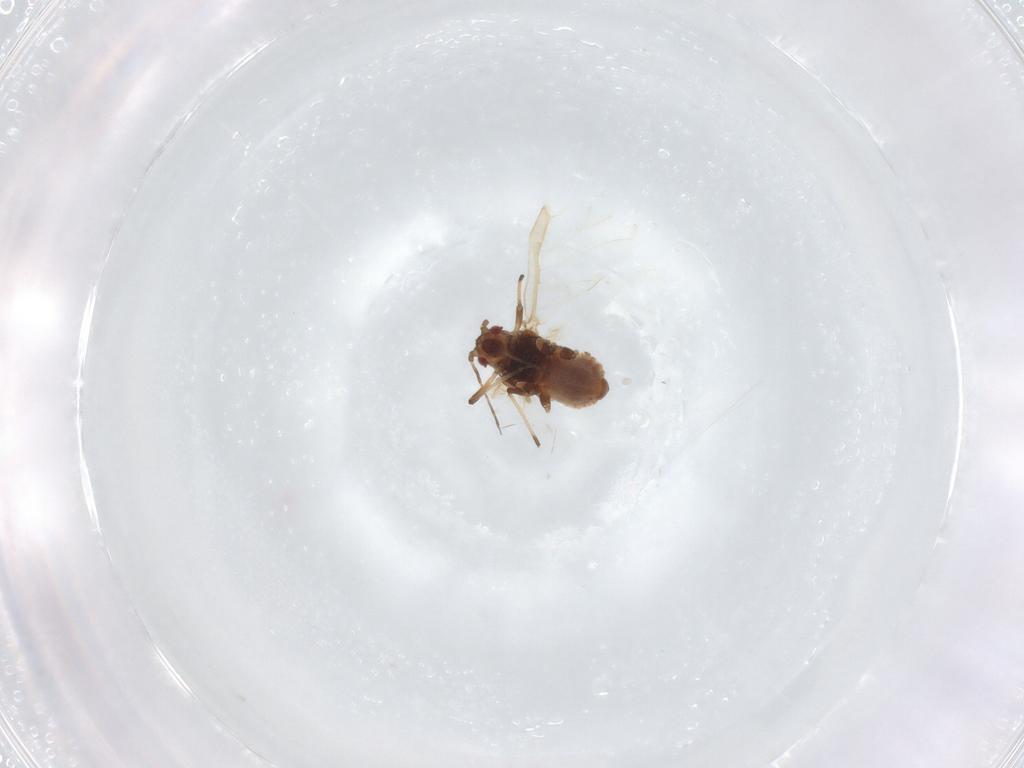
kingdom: Animalia
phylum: Arthropoda
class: Insecta
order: Hemiptera
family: Aphididae
